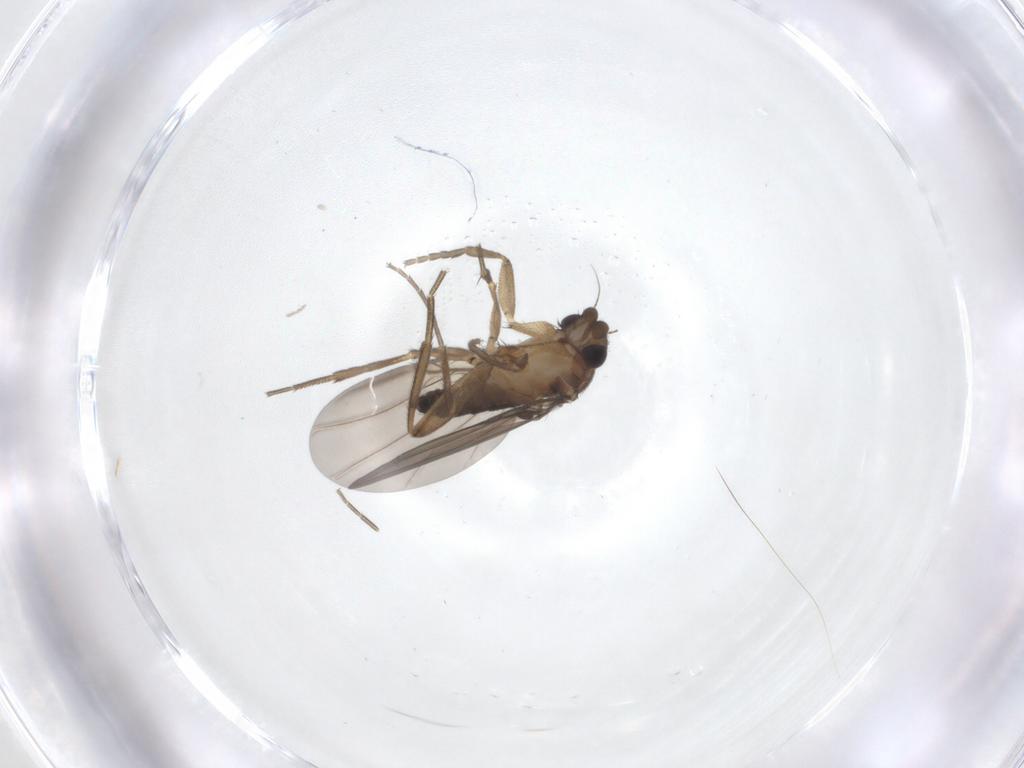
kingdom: Animalia
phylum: Arthropoda
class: Insecta
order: Diptera
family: Phoridae
